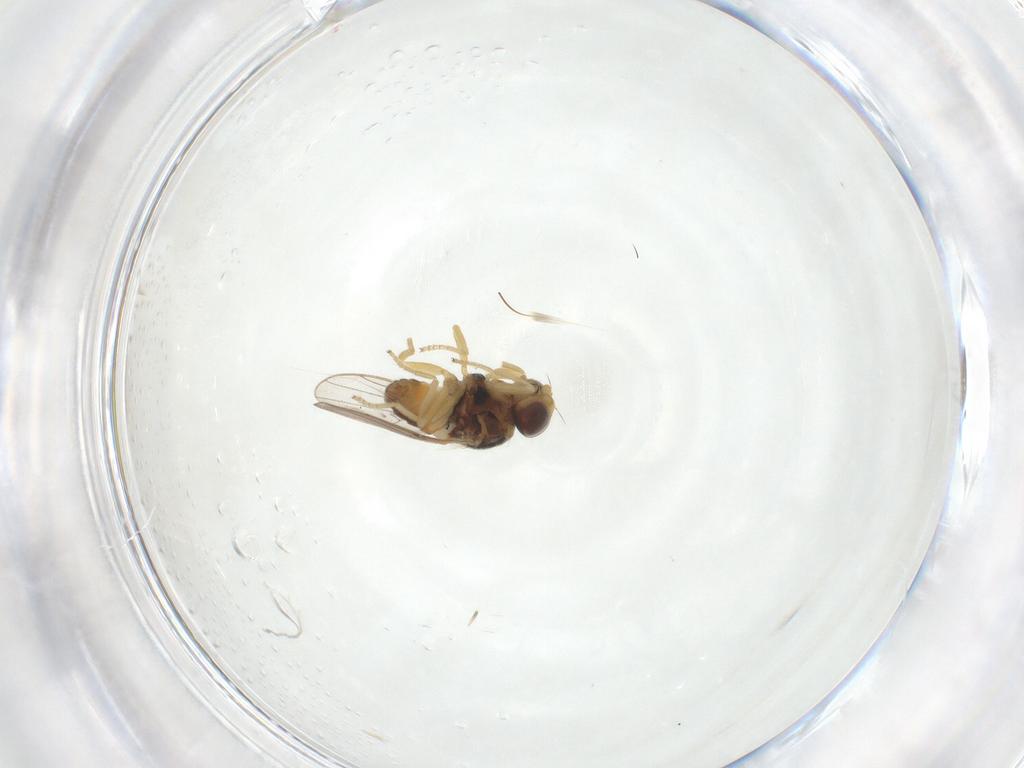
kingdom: Animalia
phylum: Arthropoda
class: Insecta
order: Diptera
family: Chloropidae
